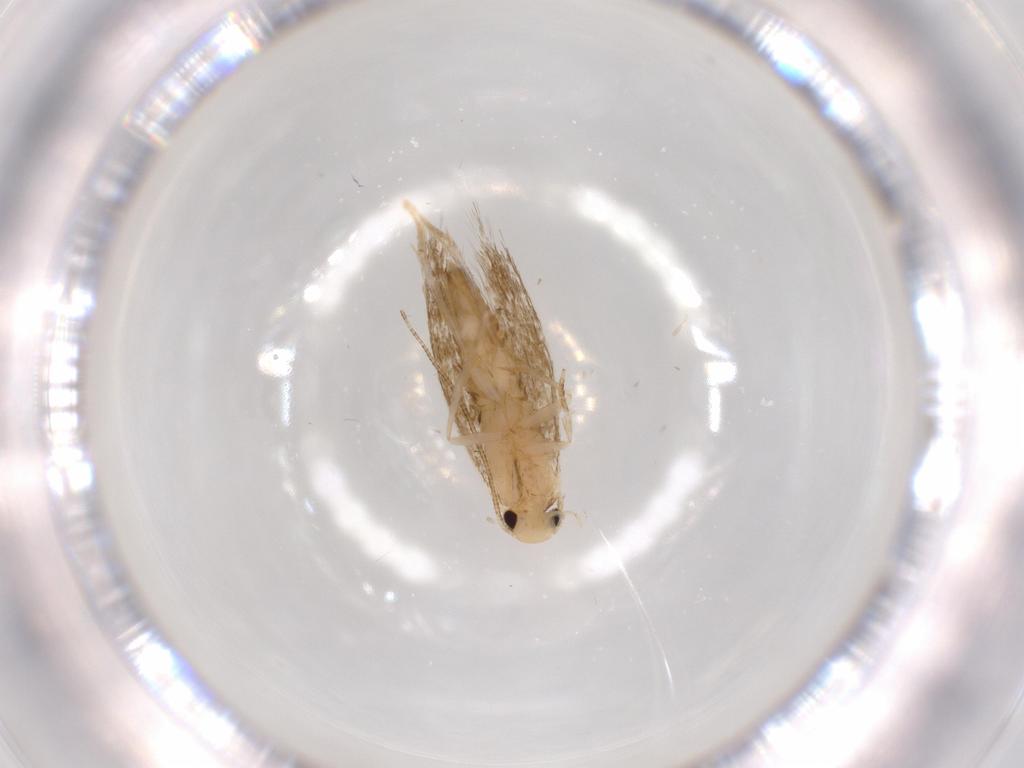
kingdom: Animalia
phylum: Arthropoda
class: Insecta
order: Lepidoptera
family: Tineidae
